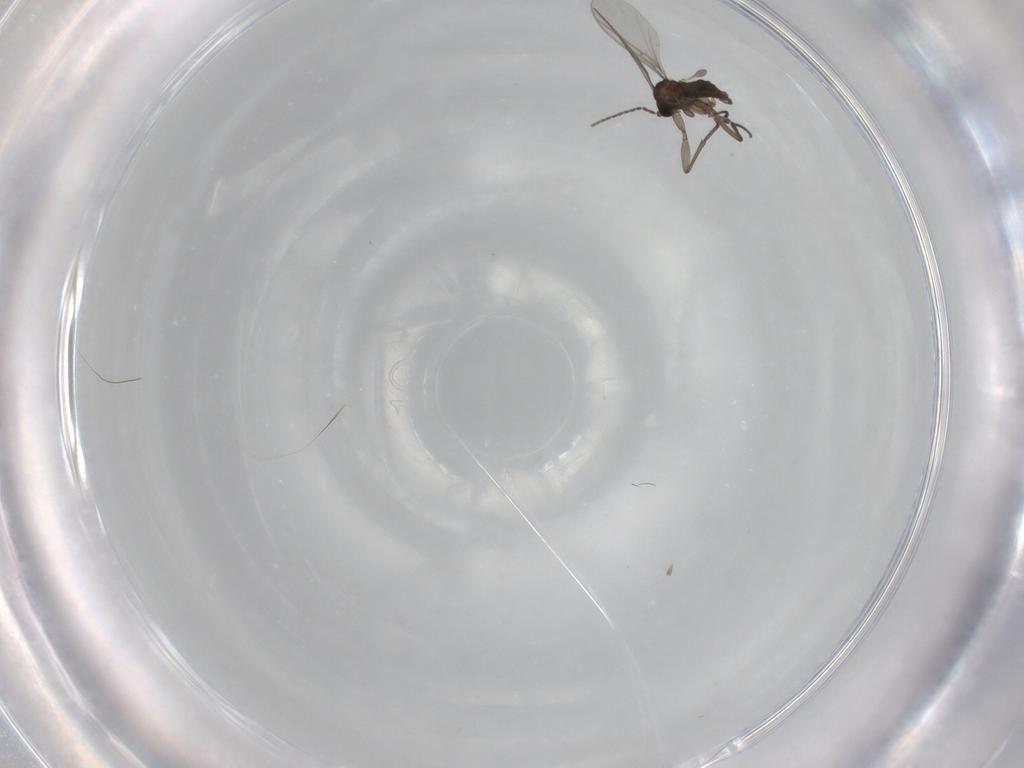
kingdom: Animalia
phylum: Arthropoda
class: Insecta
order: Diptera
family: Sciaridae
